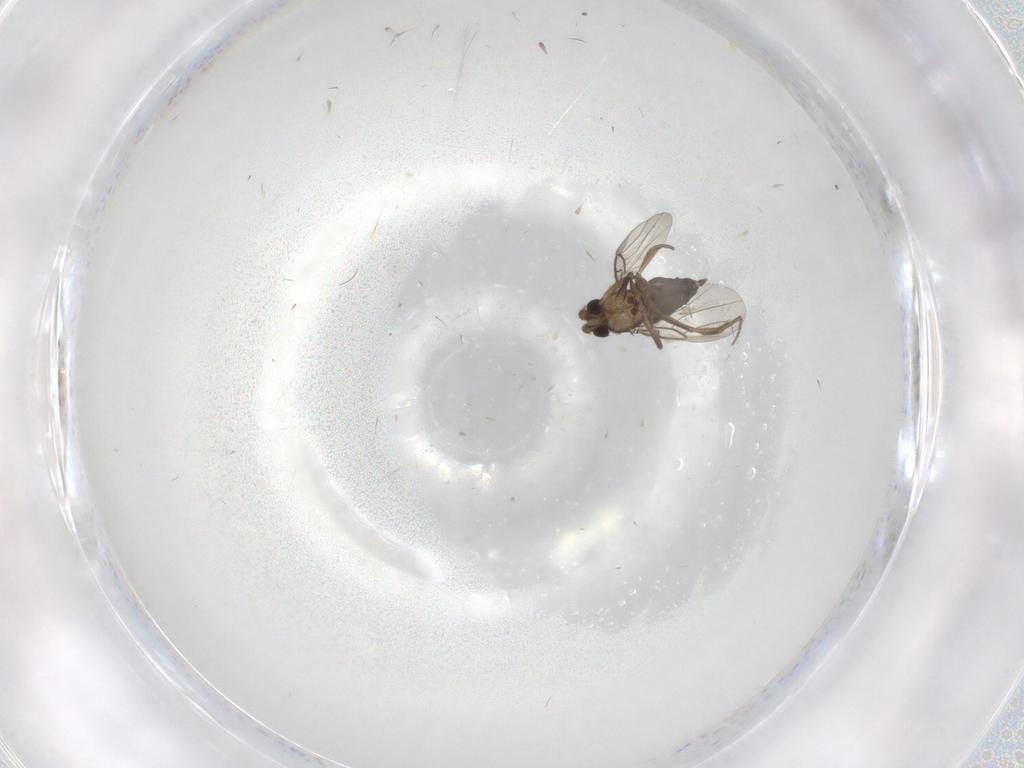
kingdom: Animalia
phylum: Arthropoda
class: Insecta
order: Diptera
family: Phoridae
